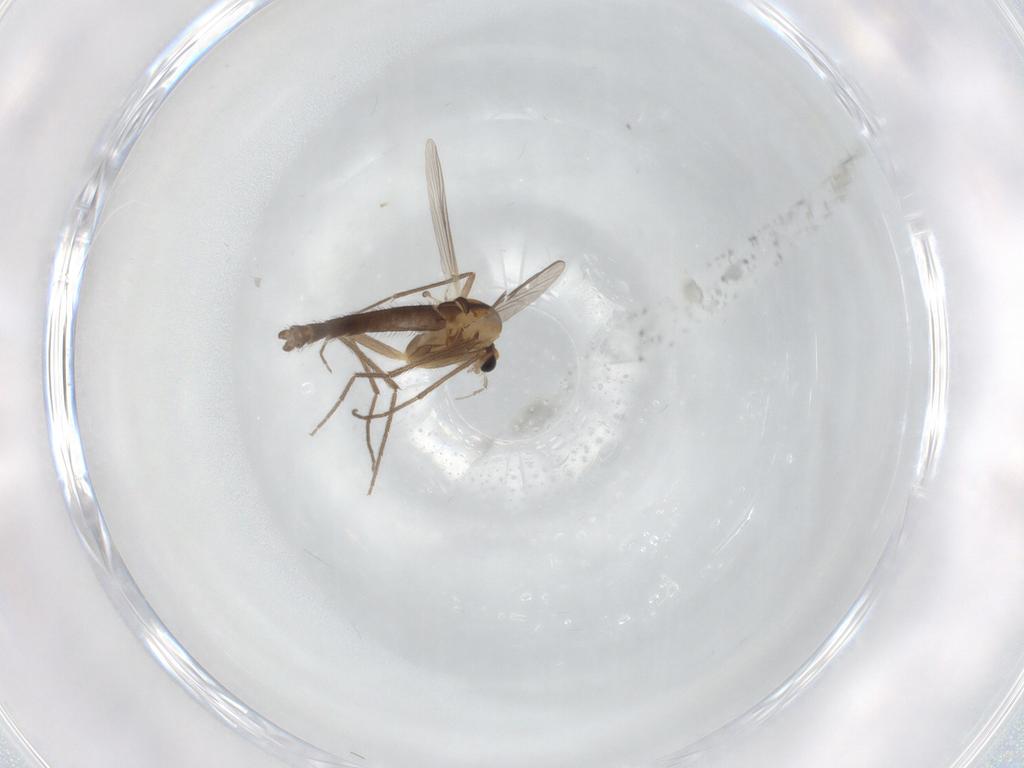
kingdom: Animalia
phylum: Arthropoda
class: Insecta
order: Diptera
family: Chironomidae
